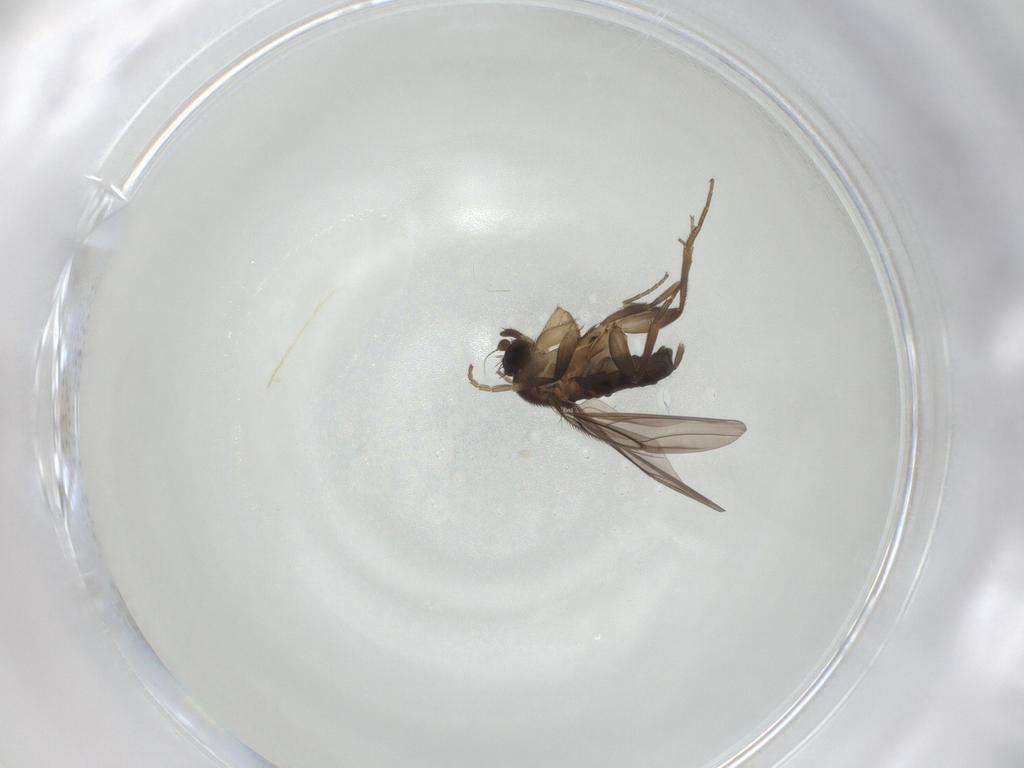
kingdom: Animalia
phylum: Arthropoda
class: Insecta
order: Diptera
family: Phoridae
